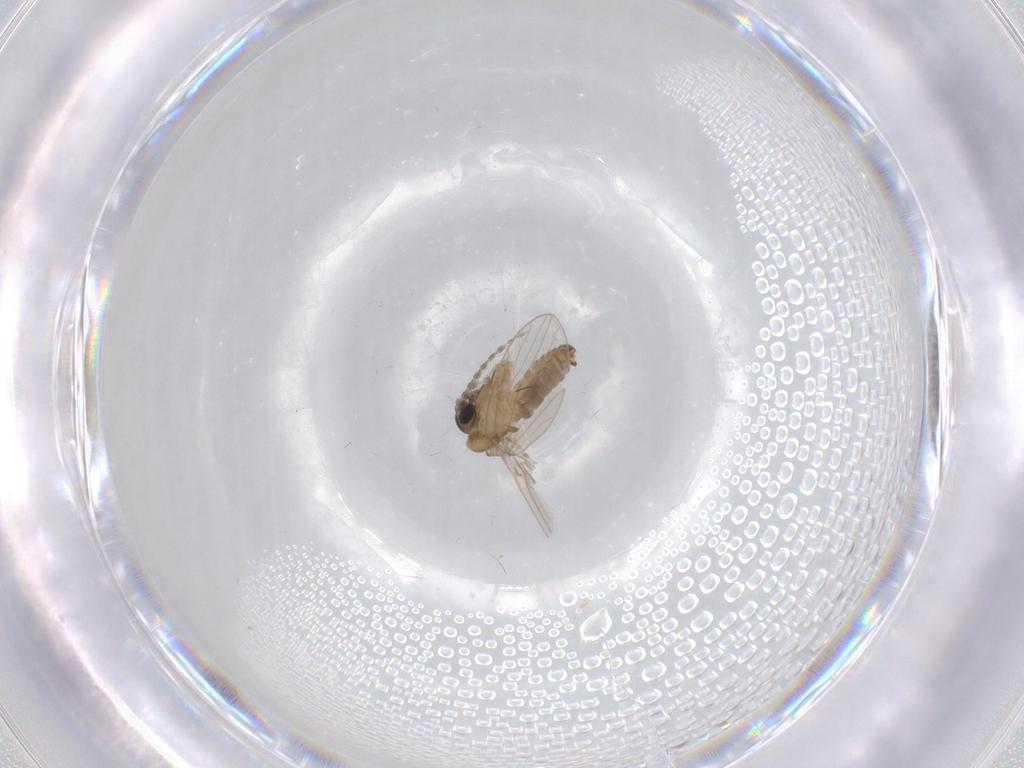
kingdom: Animalia
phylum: Arthropoda
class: Insecta
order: Diptera
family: Psychodidae
